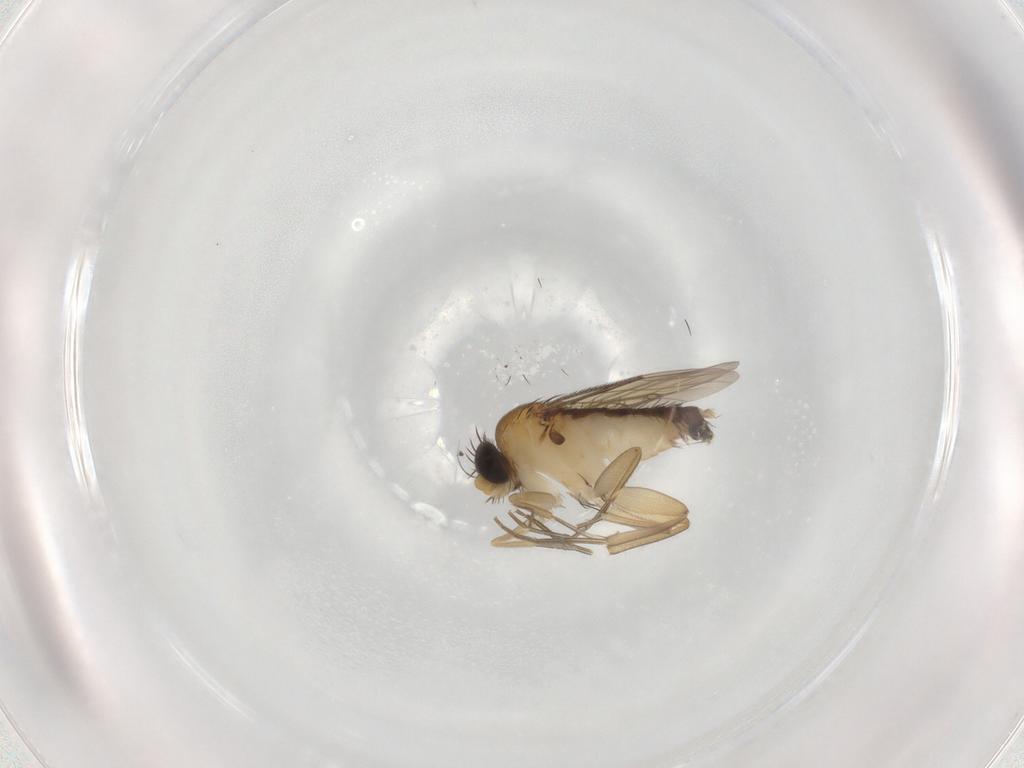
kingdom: Animalia
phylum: Arthropoda
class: Insecta
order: Diptera
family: Phoridae
